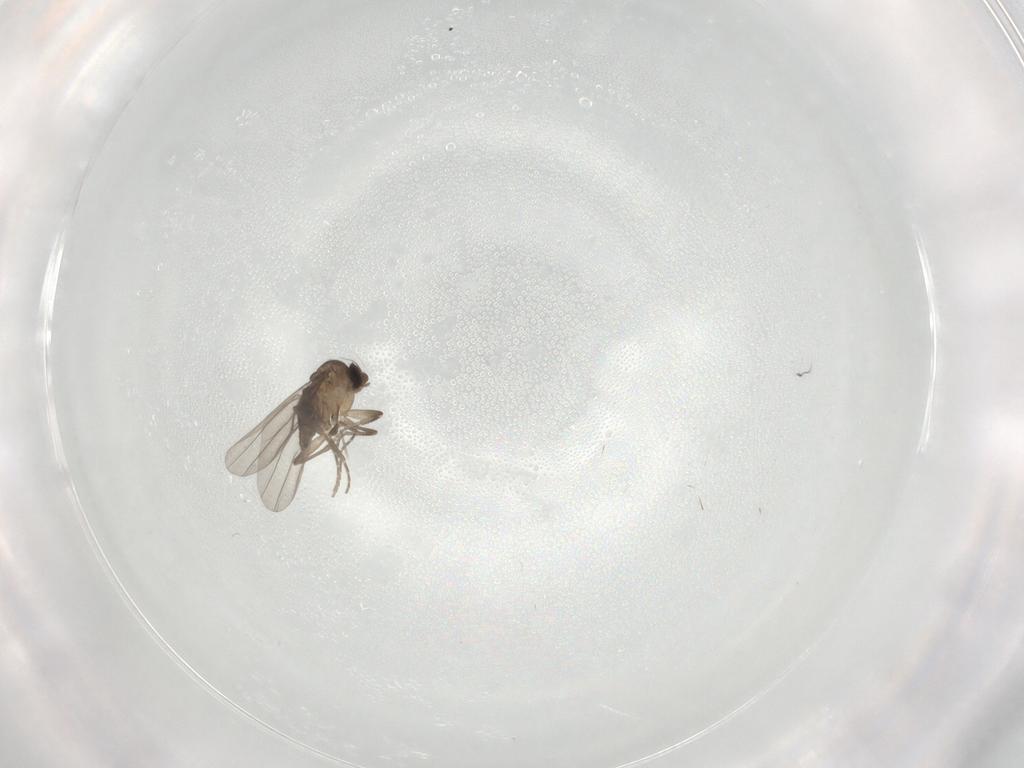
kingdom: Animalia
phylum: Arthropoda
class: Insecta
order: Diptera
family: Phoridae
